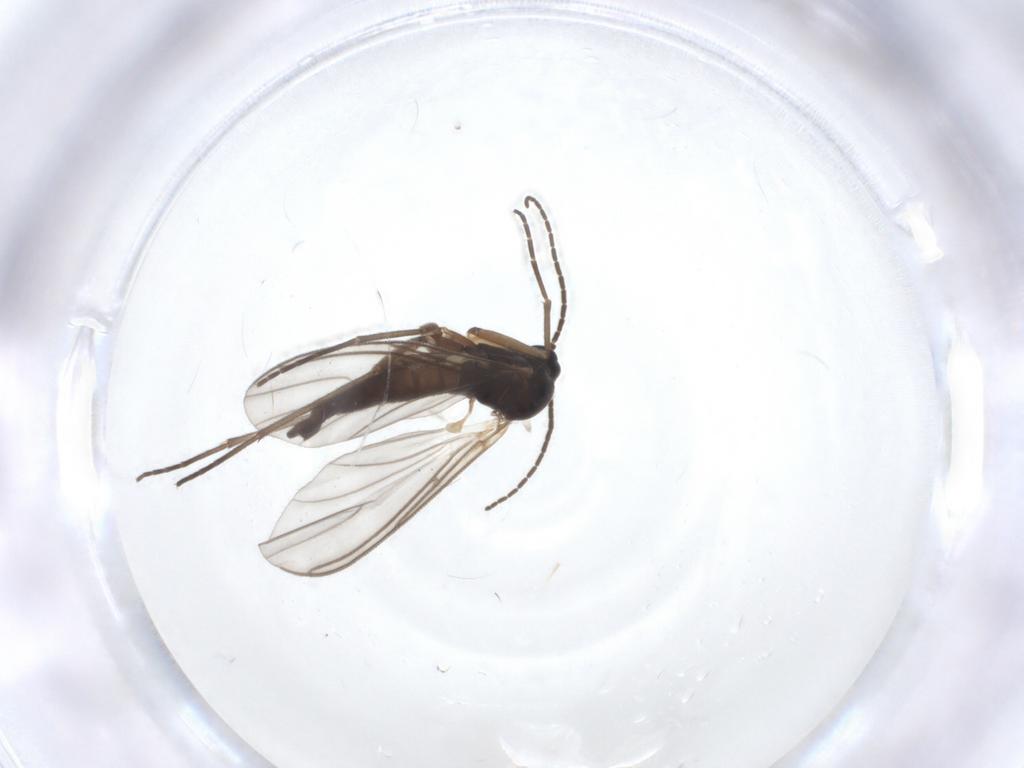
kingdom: Animalia
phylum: Arthropoda
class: Insecta
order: Diptera
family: Sciaridae
